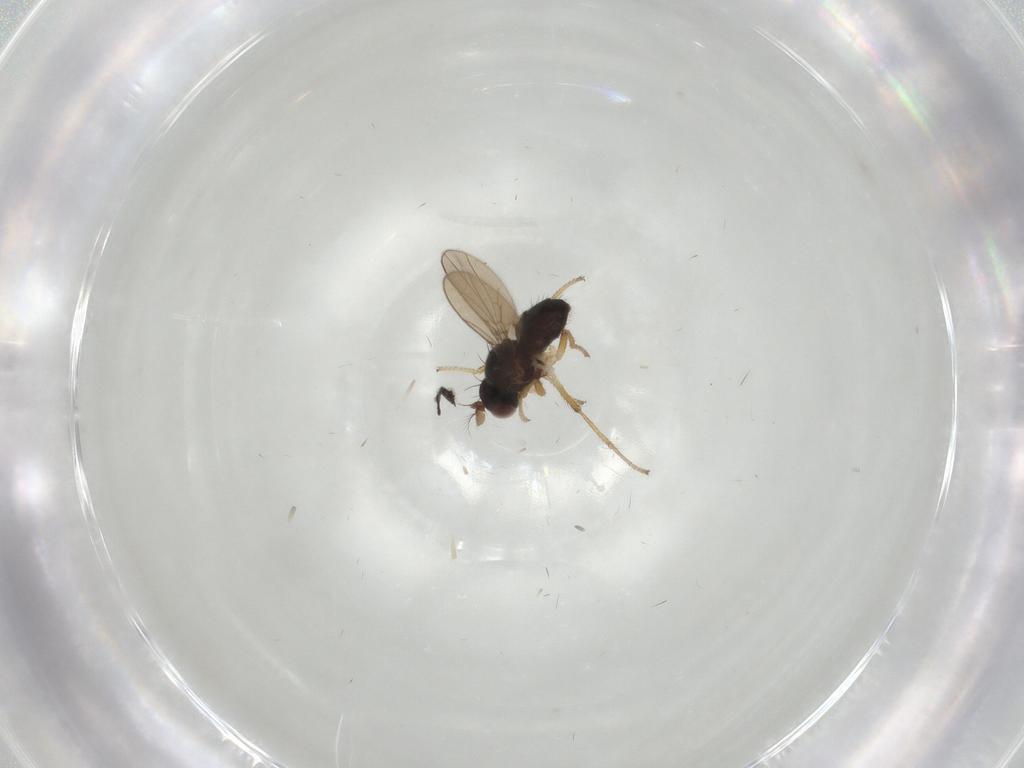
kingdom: Animalia
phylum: Arthropoda
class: Insecta
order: Diptera
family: Ephydridae
